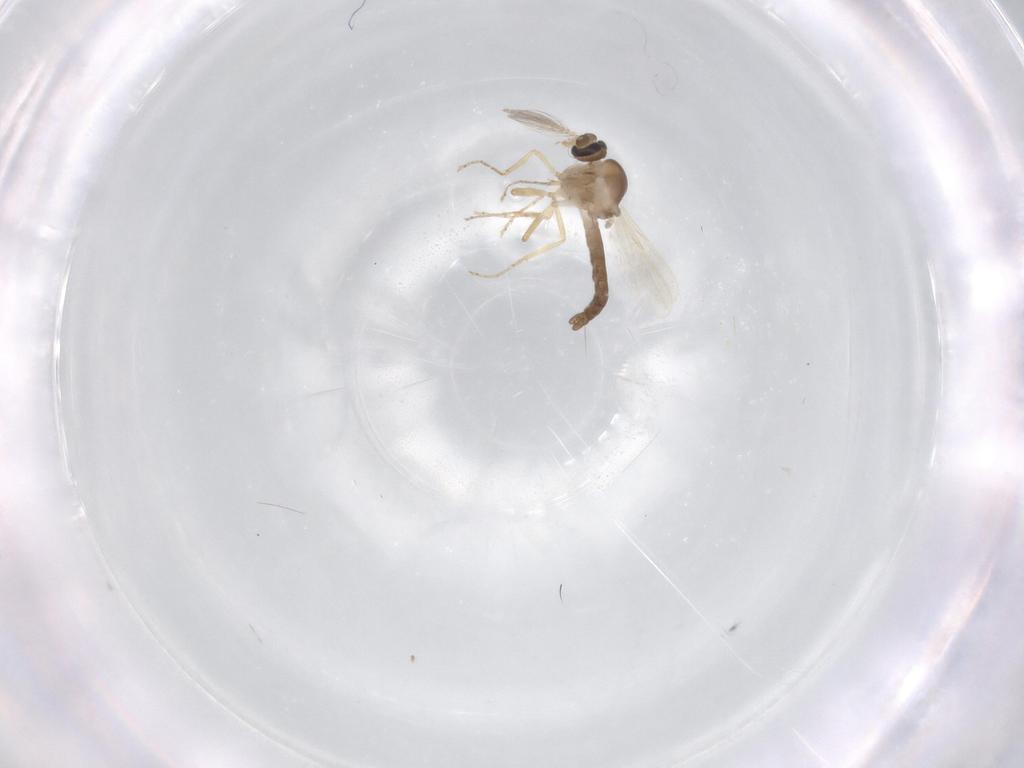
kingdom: Animalia
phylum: Arthropoda
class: Insecta
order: Diptera
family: Ceratopogonidae
